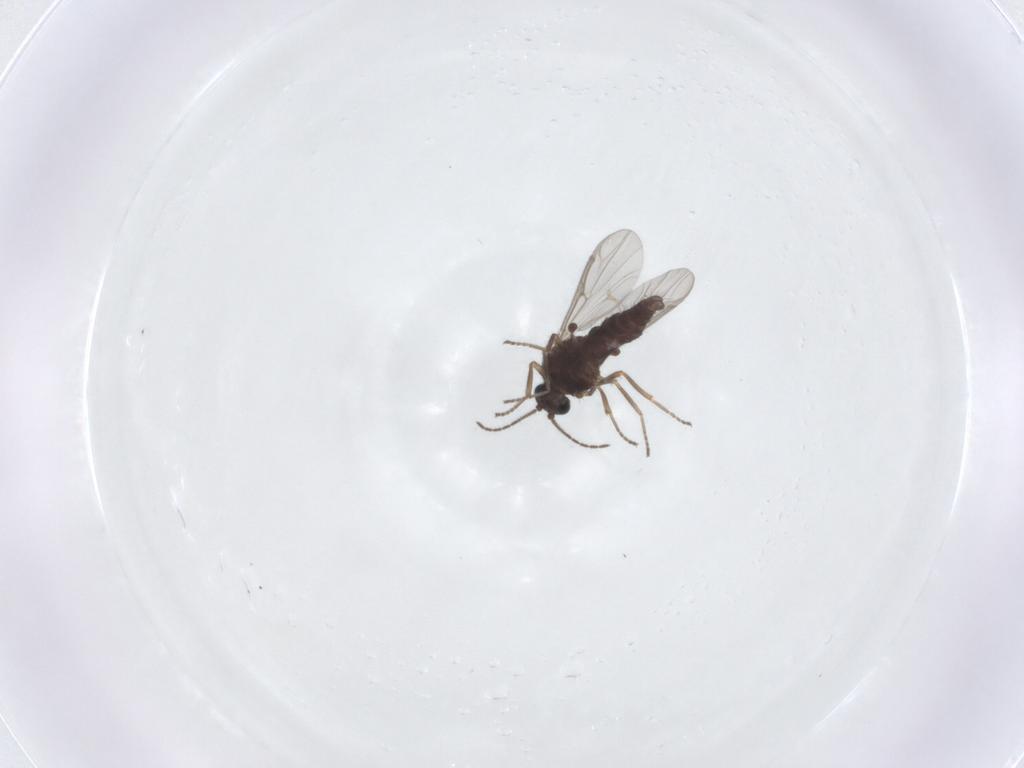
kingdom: Animalia
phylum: Arthropoda
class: Insecta
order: Diptera
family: Ceratopogonidae
